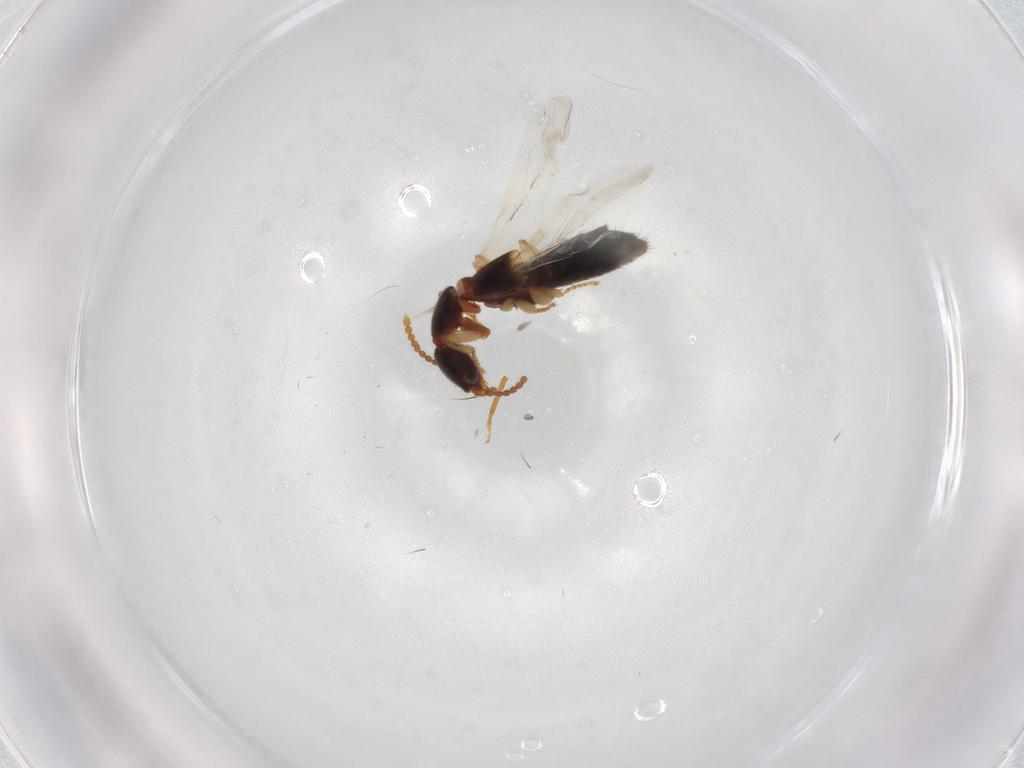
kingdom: Animalia
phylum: Arthropoda
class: Insecta
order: Coleoptera
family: Staphylinidae
